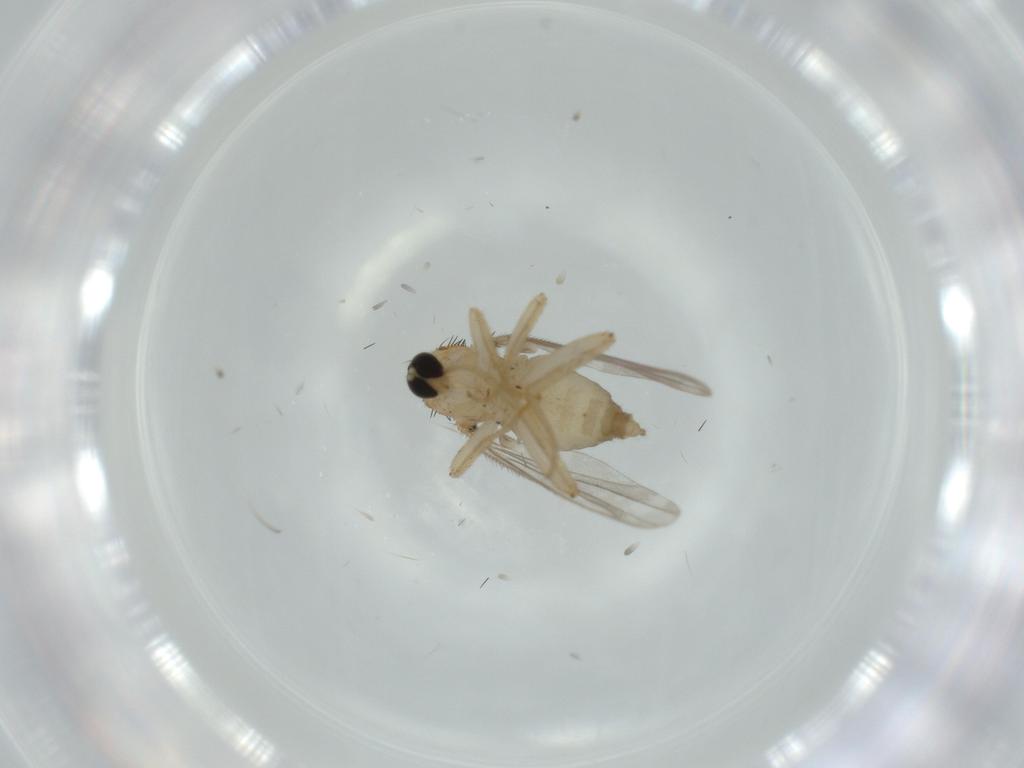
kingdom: Animalia
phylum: Arthropoda
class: Insecta
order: Diptera
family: Hybotidae
